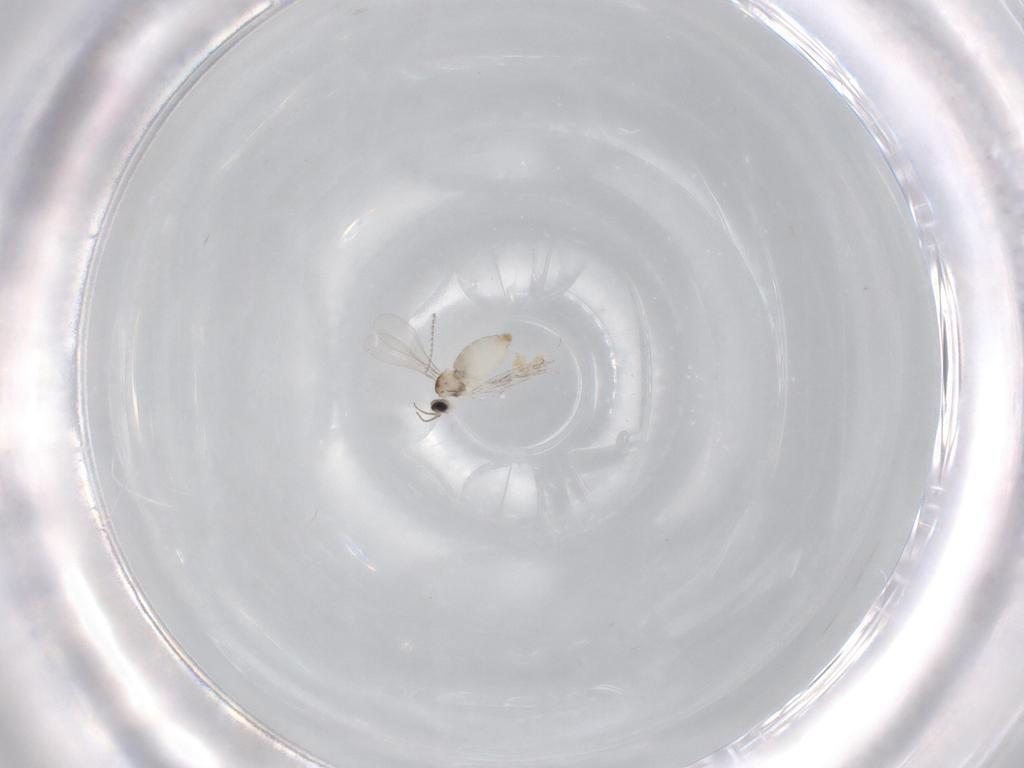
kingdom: Animalia
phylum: Arthropoda
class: Insecta
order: Diptera
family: Cecidomyiidae
